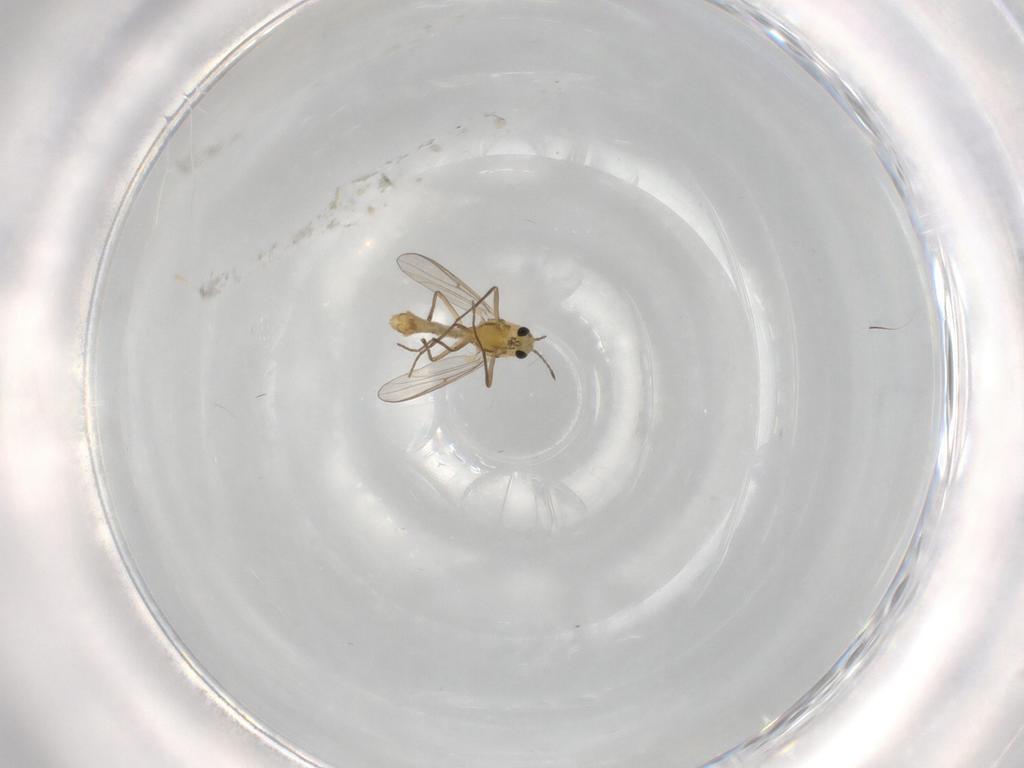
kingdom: Animalia
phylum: Arthropoda
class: Insecta
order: Diptera
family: Chironomidae
